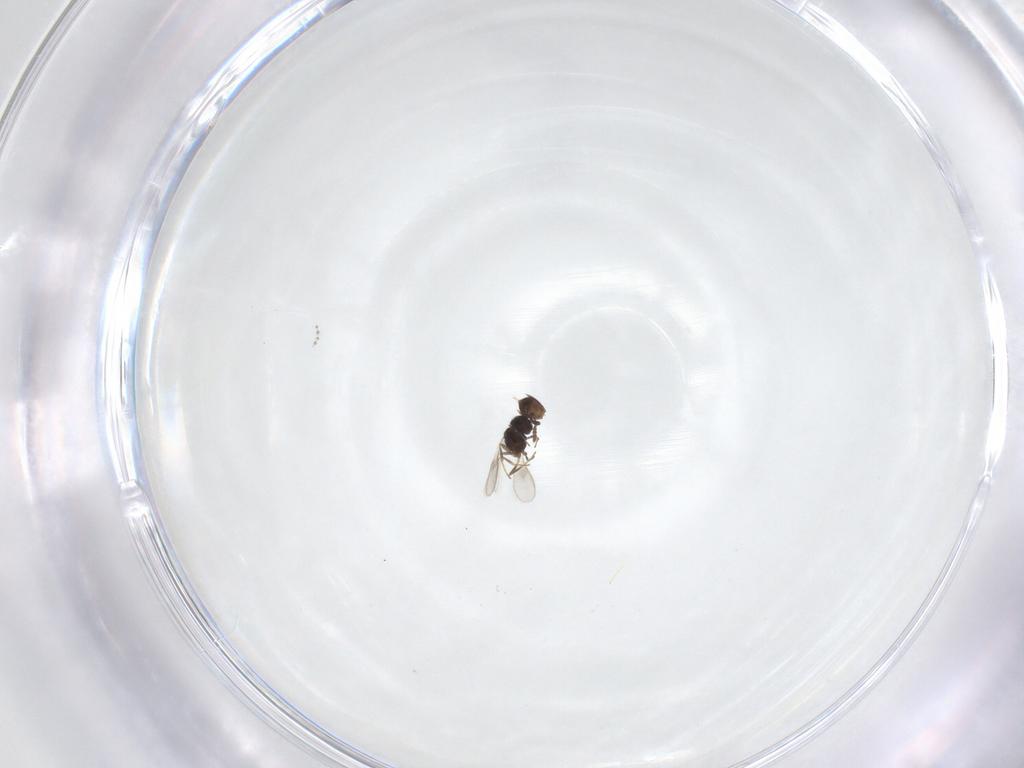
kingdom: Animalia
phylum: Arthropoda
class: Insecta
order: Hymenoptera
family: Scelionidae
